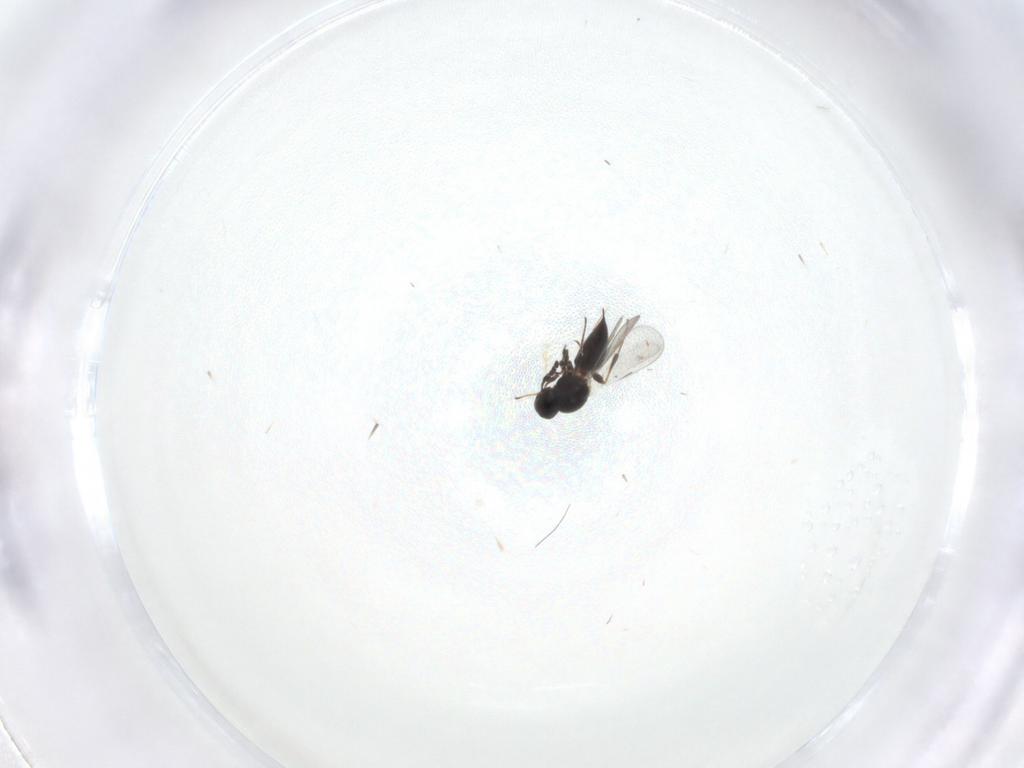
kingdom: Animalia
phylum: Arthropoda
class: Insecta
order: Hymenoptera
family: Platygastridae
